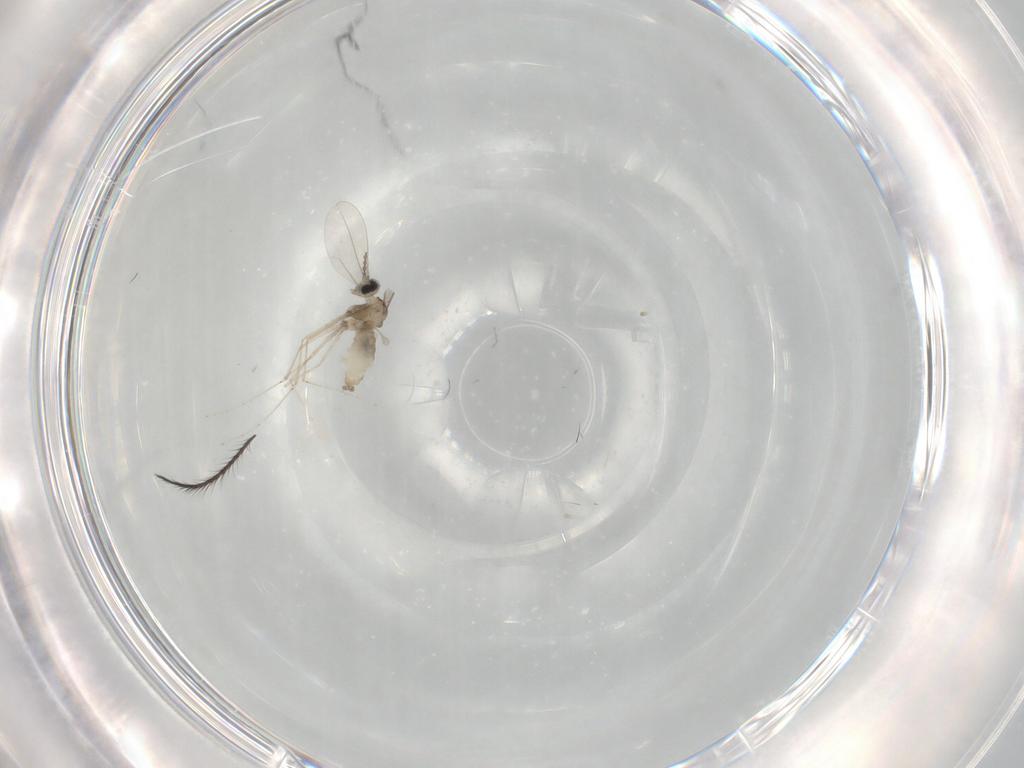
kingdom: Animalia
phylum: Arthropoda
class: Insecta
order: Diptera
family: Cecidomyiidae
